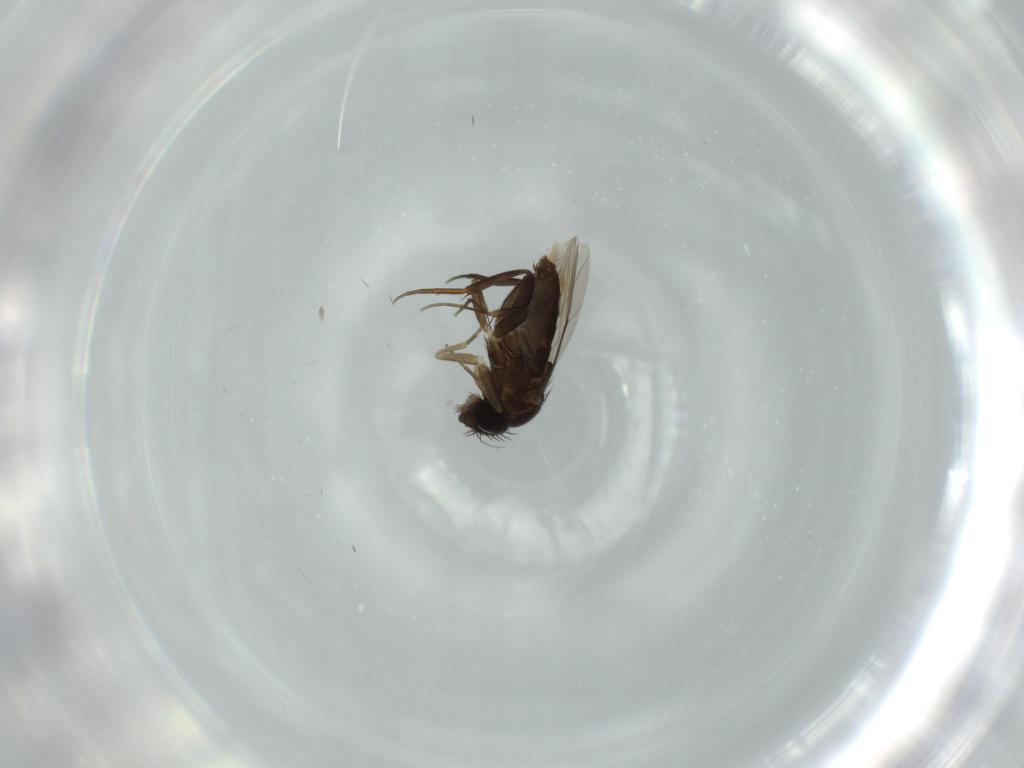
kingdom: Animalia
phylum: Arthropoda
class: Insecta
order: Diptera
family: Phoridae
